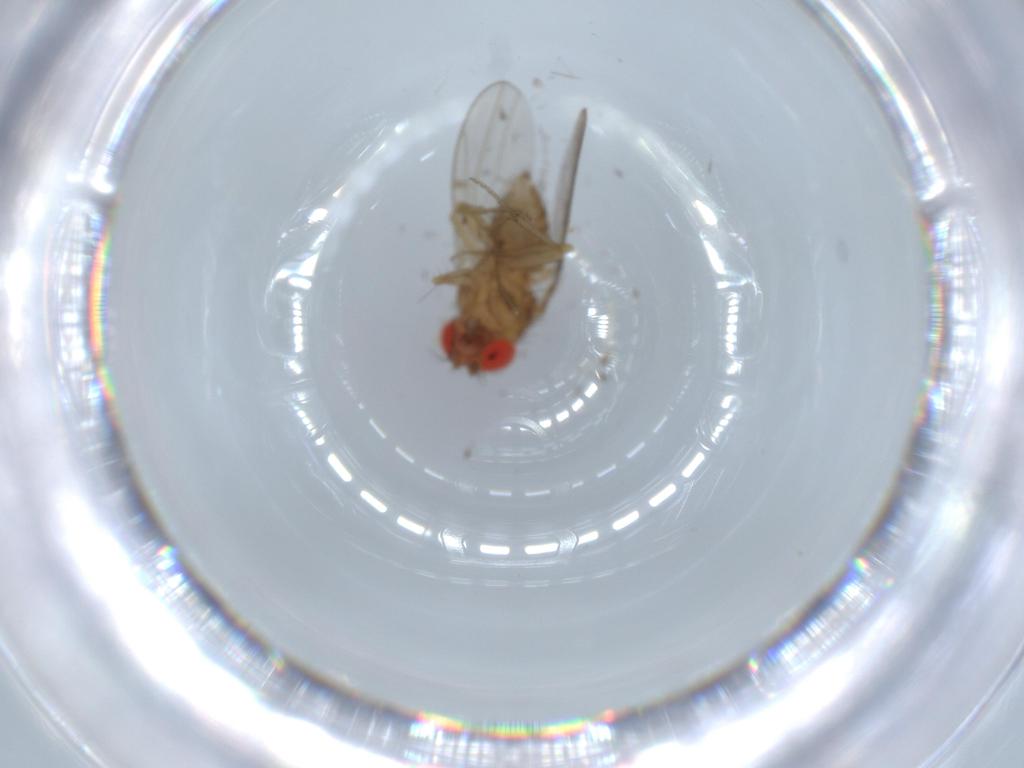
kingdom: Animalia
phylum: Arthropoda
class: Insecta
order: Diptera
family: Drosophilidae
